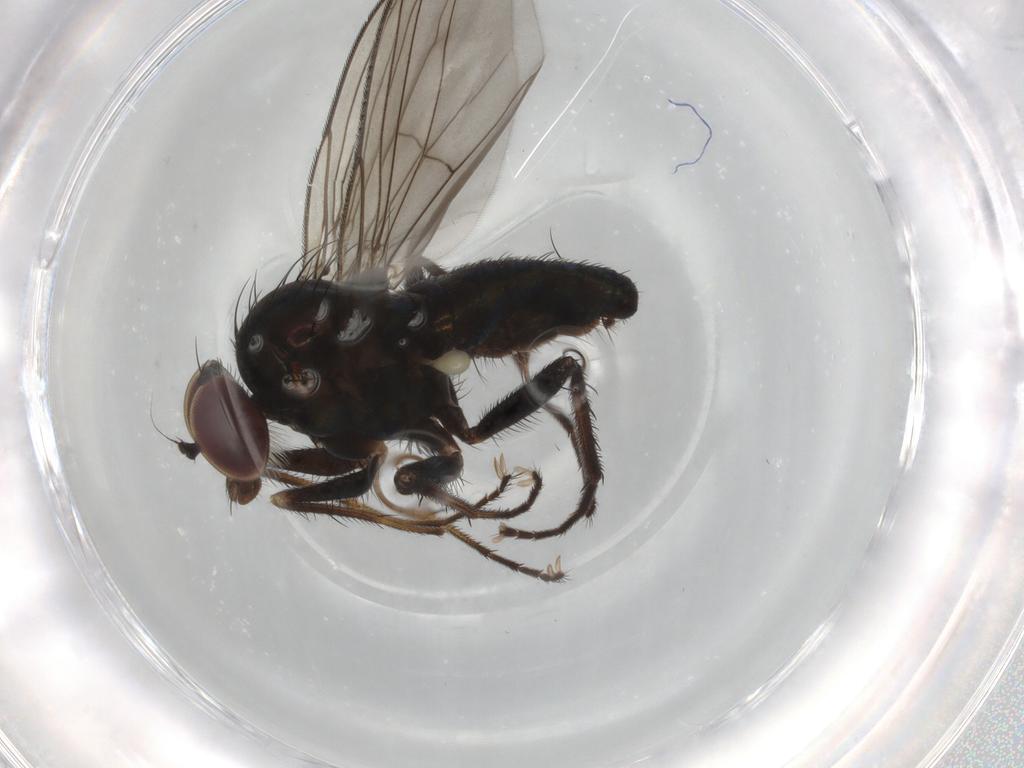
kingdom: Animalia
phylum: Arthropoda
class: Insecta
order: Diptera
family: Dolichopodidae
